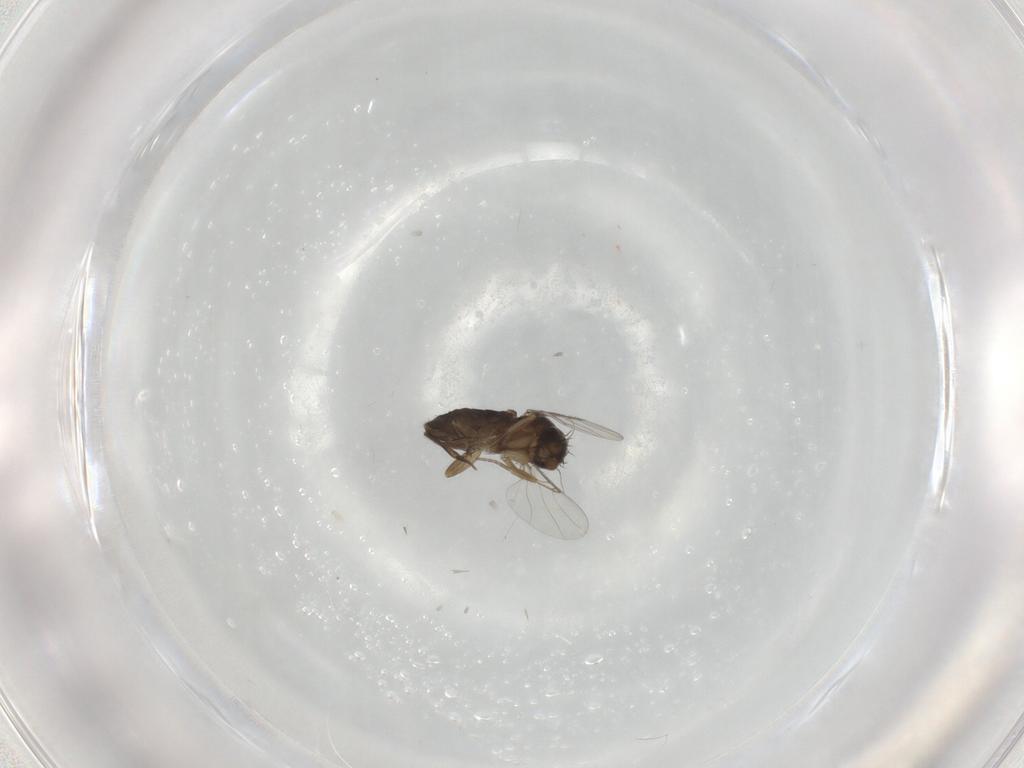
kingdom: Animalia
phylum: Arthropoda
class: Insecta
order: Diptera
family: Phoridae
